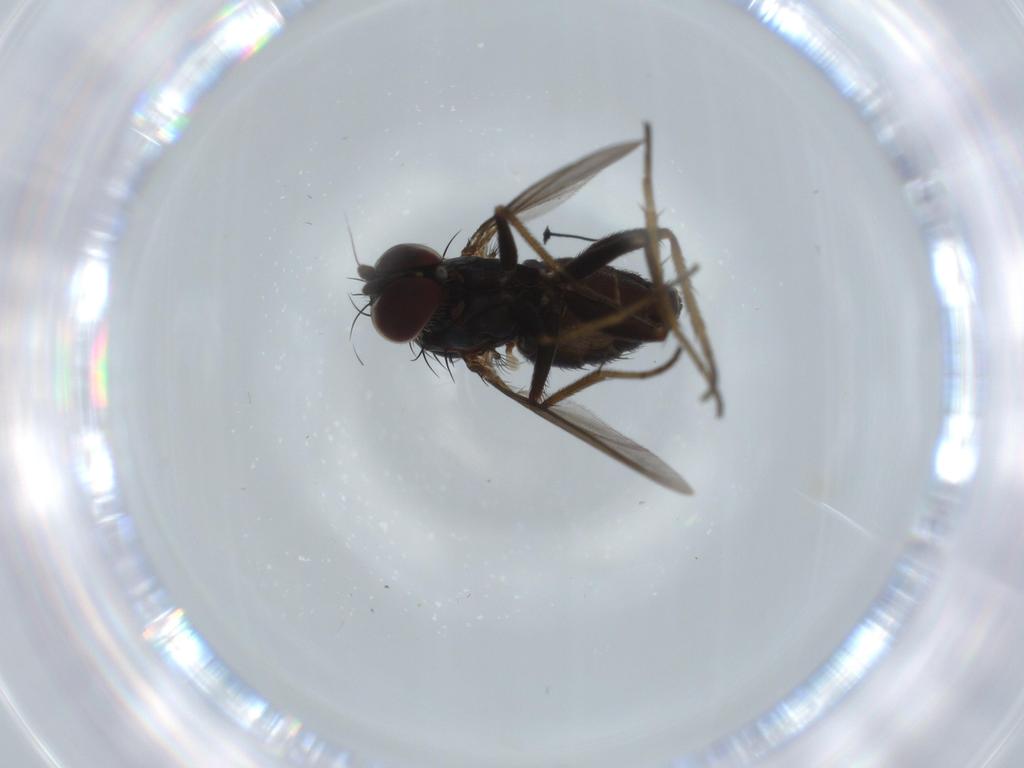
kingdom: Animalia
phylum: Arthropoda
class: Insecta
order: Diptera
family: Dolichopodidae
